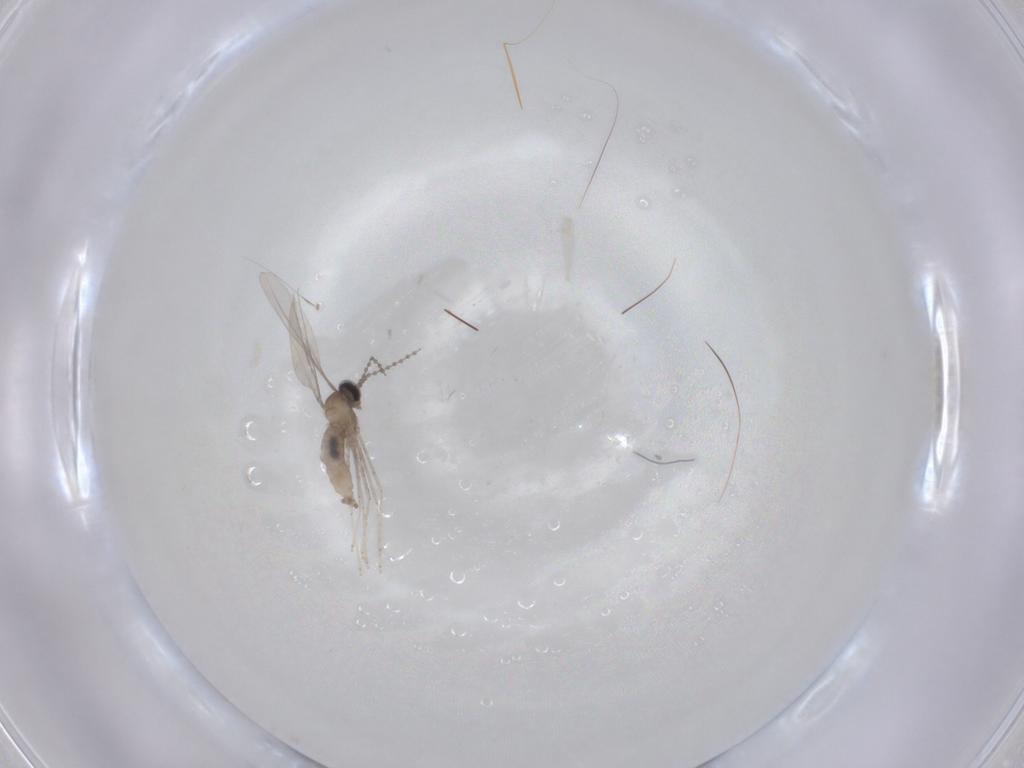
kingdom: Animalia
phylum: Arthropoda
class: Insecta
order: Diptera
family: Cecidomyiidae
